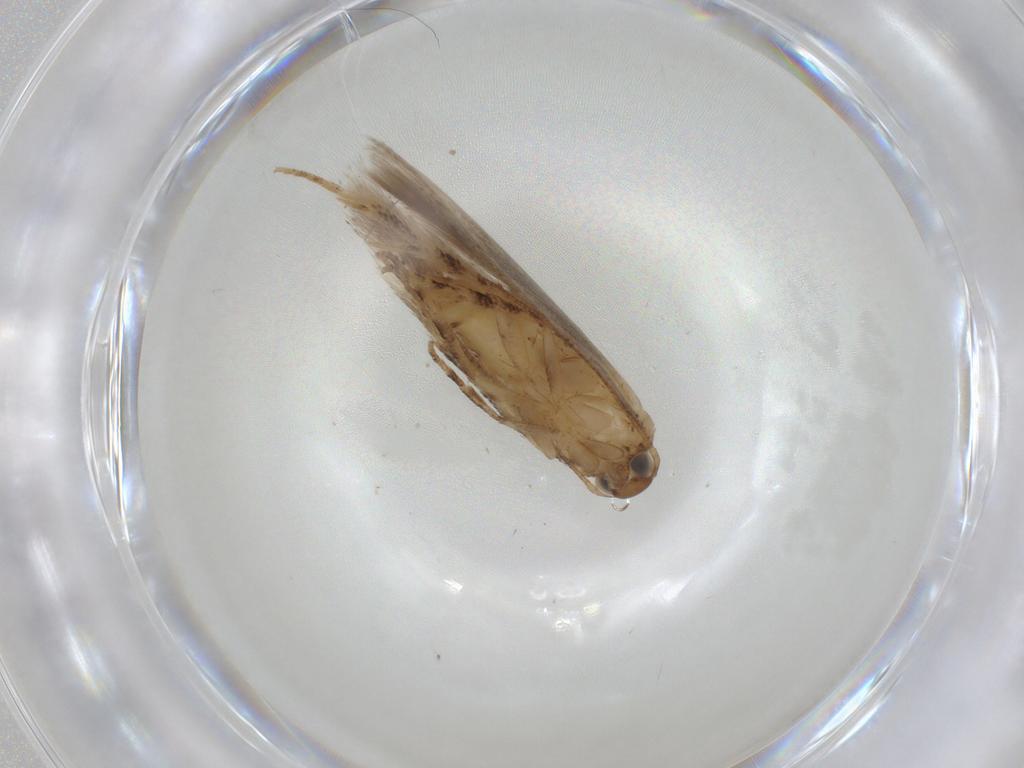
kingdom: Animalia
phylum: Arthropoda
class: Insecta
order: Lepidoptera
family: Gelechiidae
